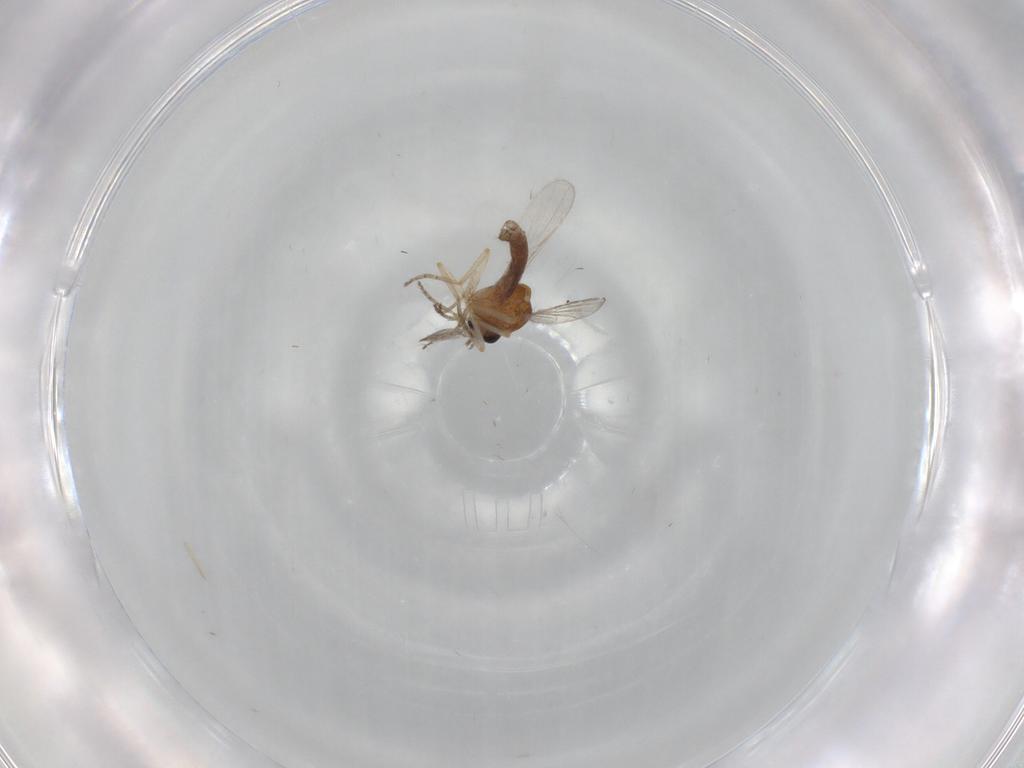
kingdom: Animalia
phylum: Arthropoda
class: Insecta
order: Diptera
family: Ceratopogonidae
